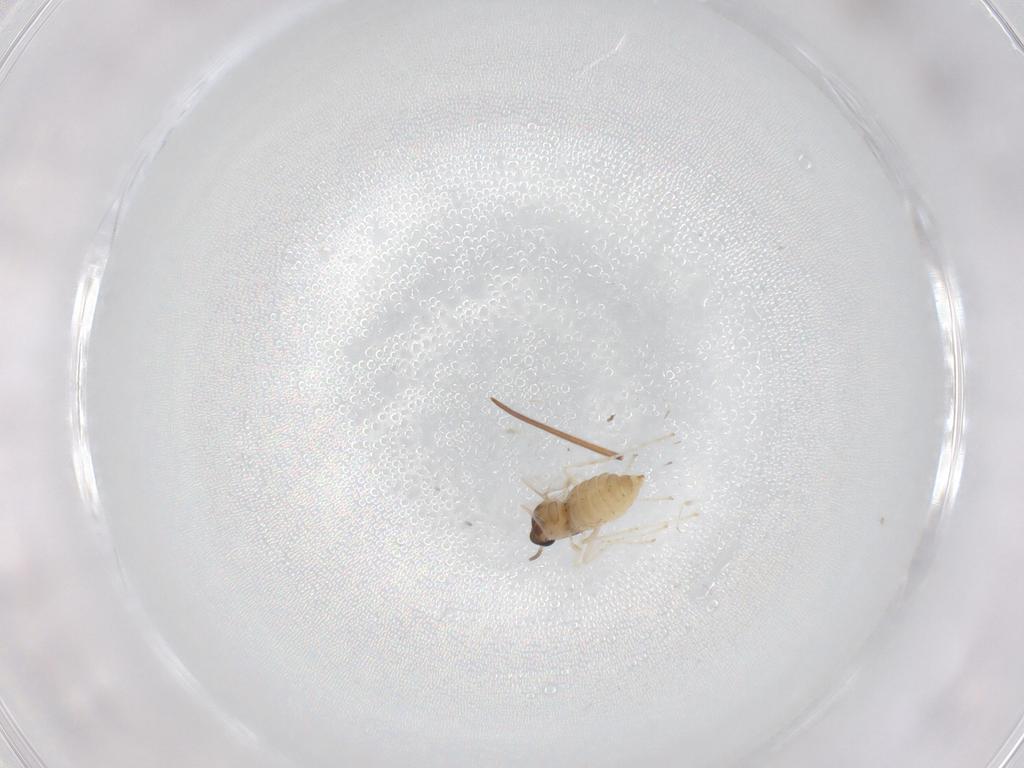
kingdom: Animalia
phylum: Arthropoda
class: Insecta
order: Diptera
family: Cecidomyiidae
